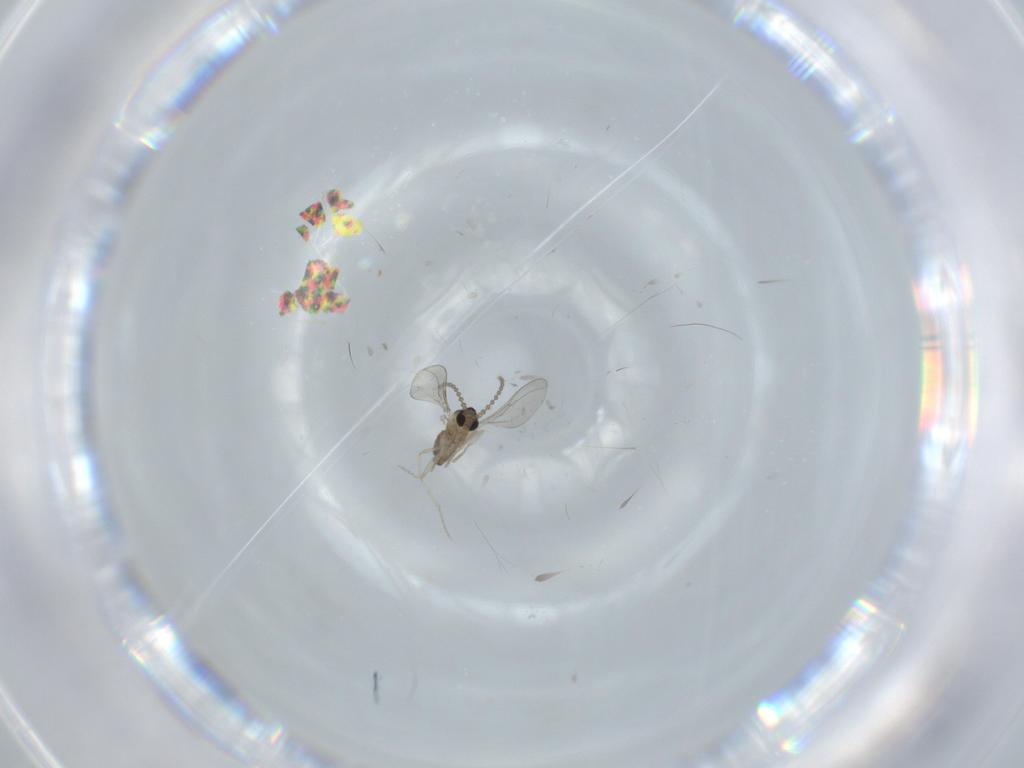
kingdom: Animalia
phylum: Arthropoda
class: Insecta
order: Diptera
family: Cecidomyiidae
